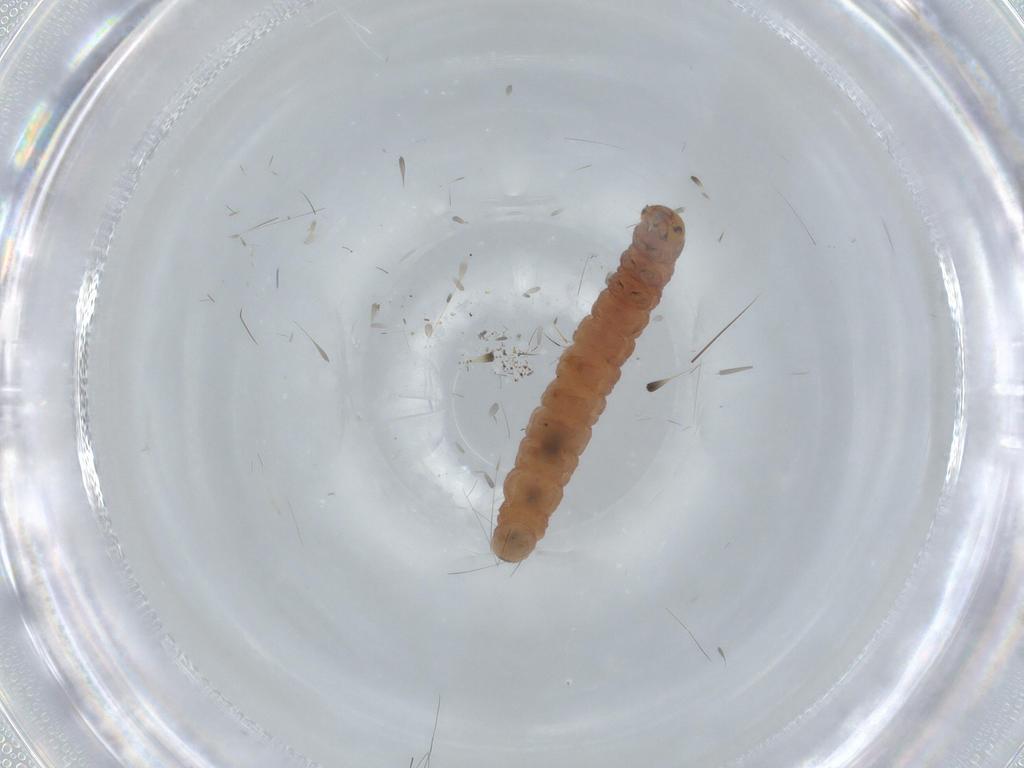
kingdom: Animalia
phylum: Arthropoda
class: Insecta
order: Lepidoptera
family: Blastobasidae
